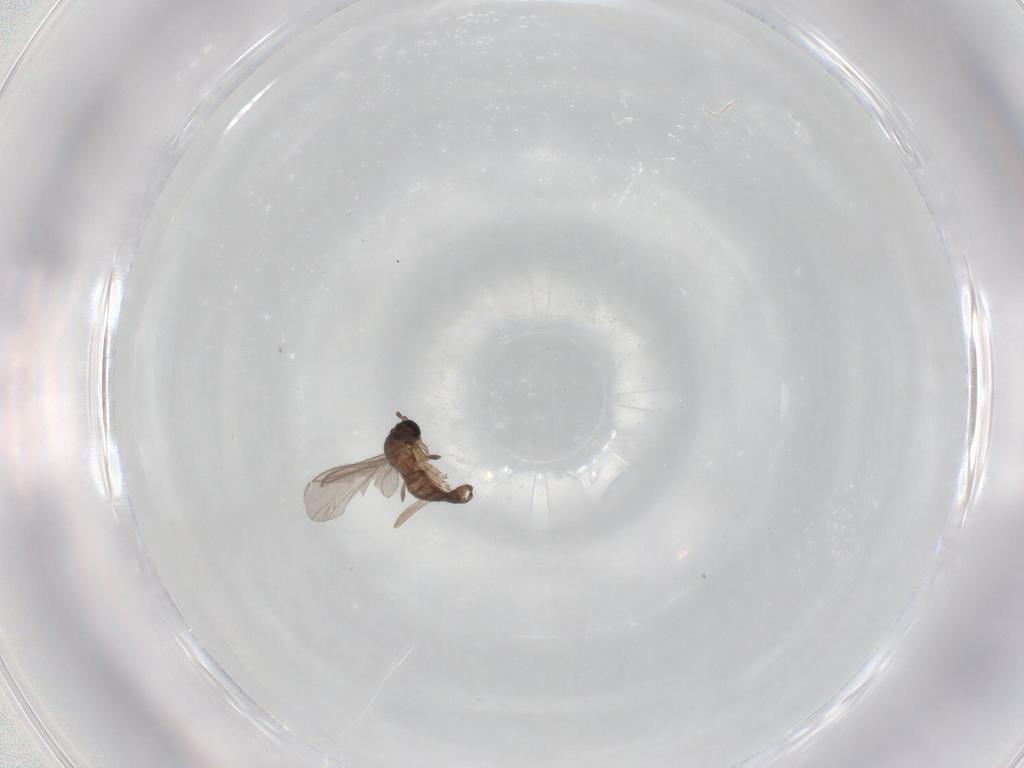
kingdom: Animalia
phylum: Arthropoda
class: Insecta
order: Diptera
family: Sciaridae
